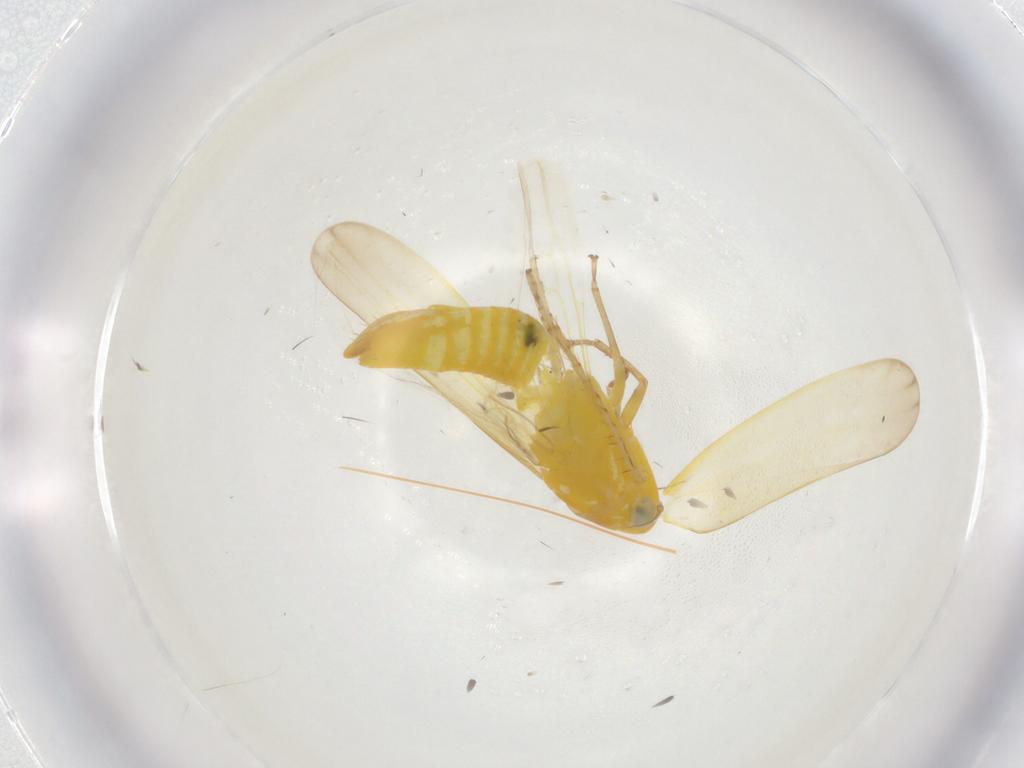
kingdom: Animalia
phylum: Arthropoda
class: Insecta
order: Hemiptera
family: Cicadellidae
